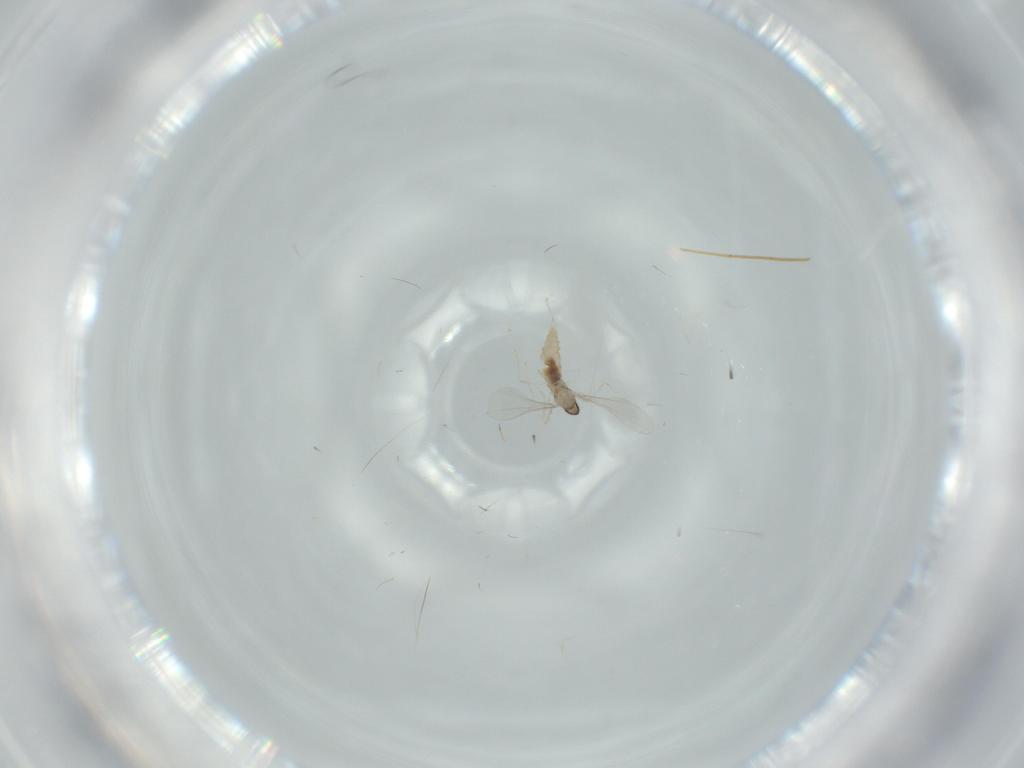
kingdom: Animalia
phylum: Arthropoda
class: Insecta
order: Diptera
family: Cecidomyiidae
